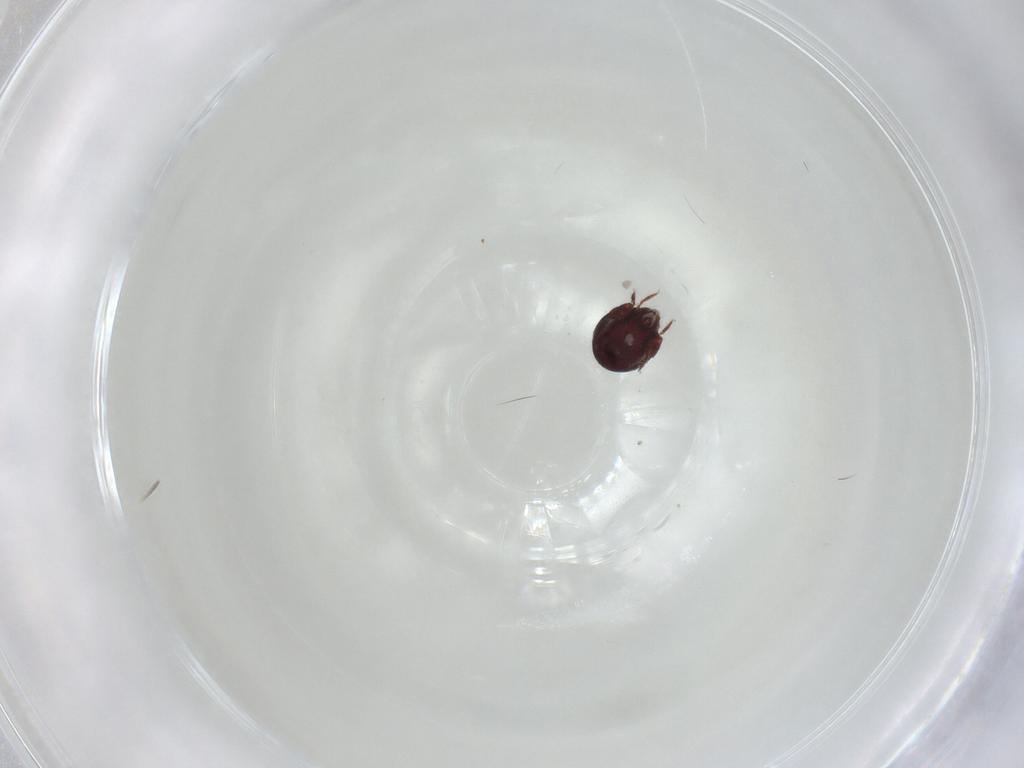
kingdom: Animalia
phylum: Arthropoda
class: Arachnida
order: Sarcoptiformes
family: Humerobatidae
